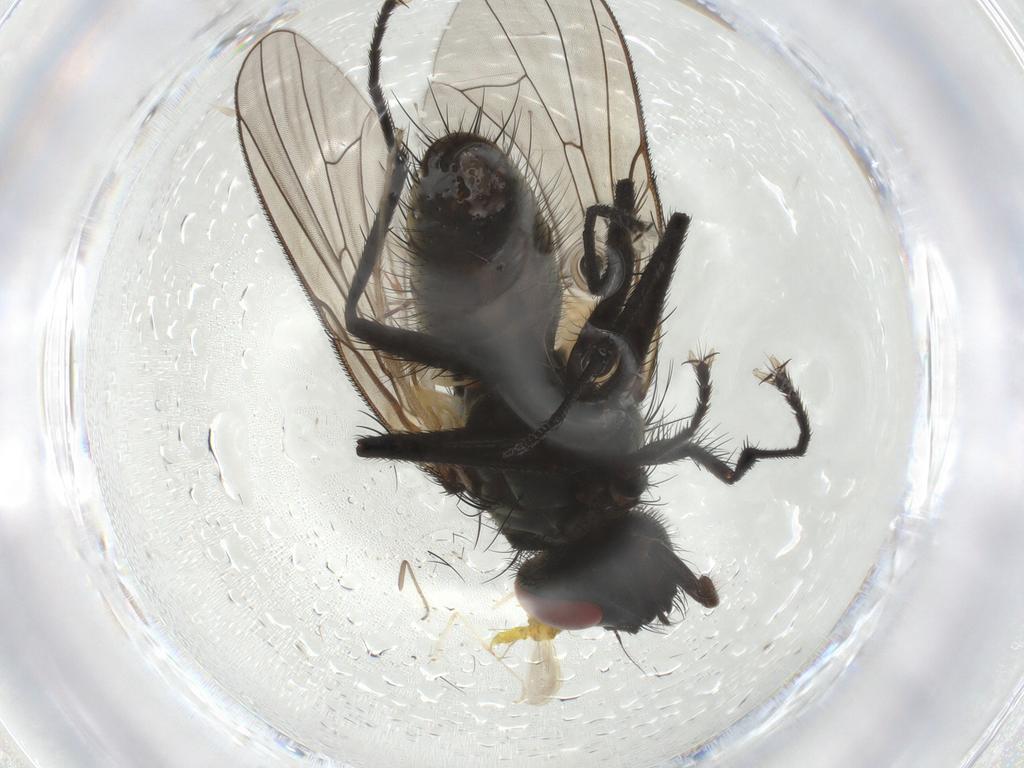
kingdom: Animalia
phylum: Arthropoda
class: Insecta
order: Diptera
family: Muscidae
